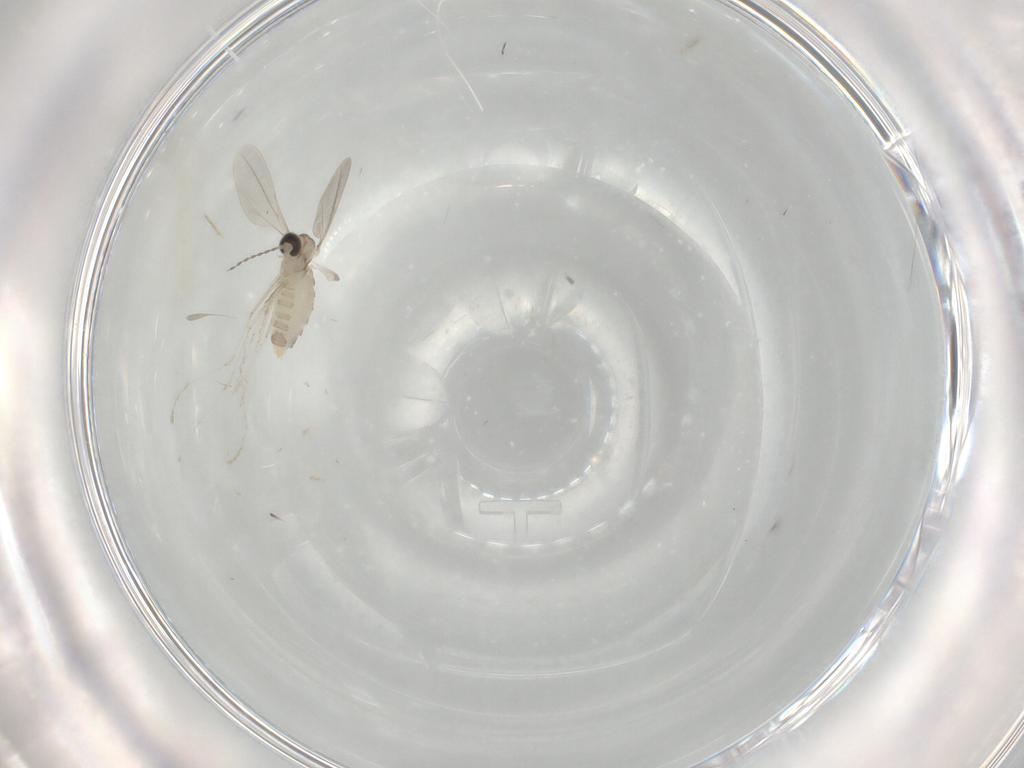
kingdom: Animalia
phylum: Arthropoda
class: Insecta
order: Diptera
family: Cecidomyiidae
